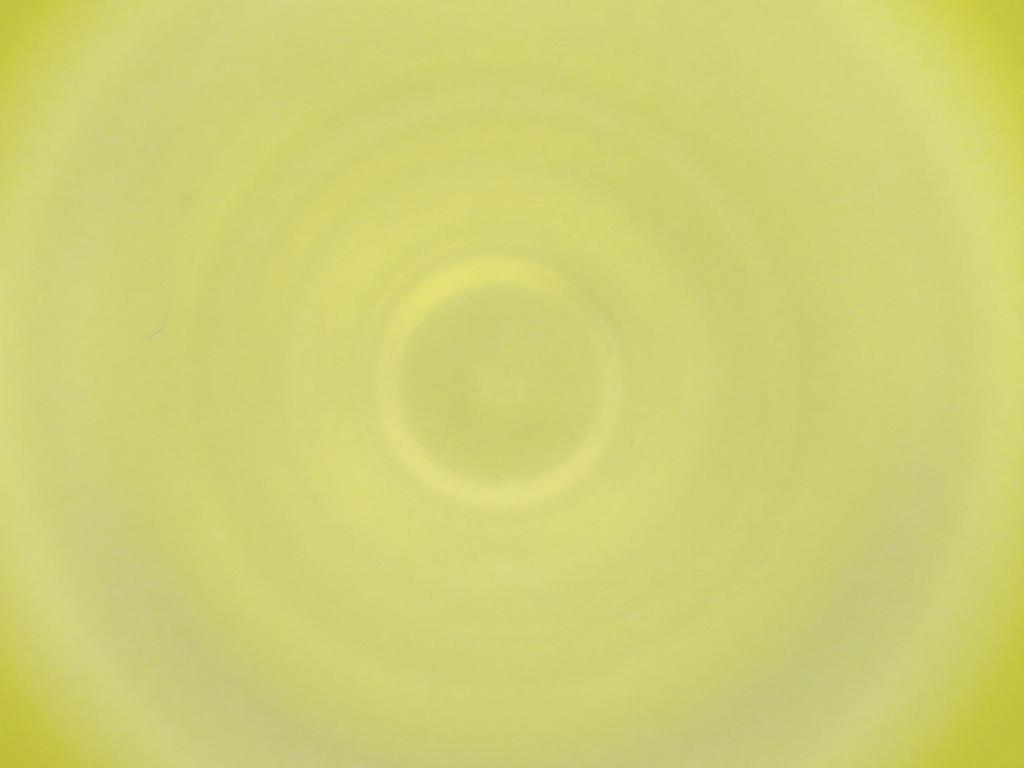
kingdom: Animalia
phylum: Arthropoda
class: Insecta
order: Diptera
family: Cecidomyiidae
